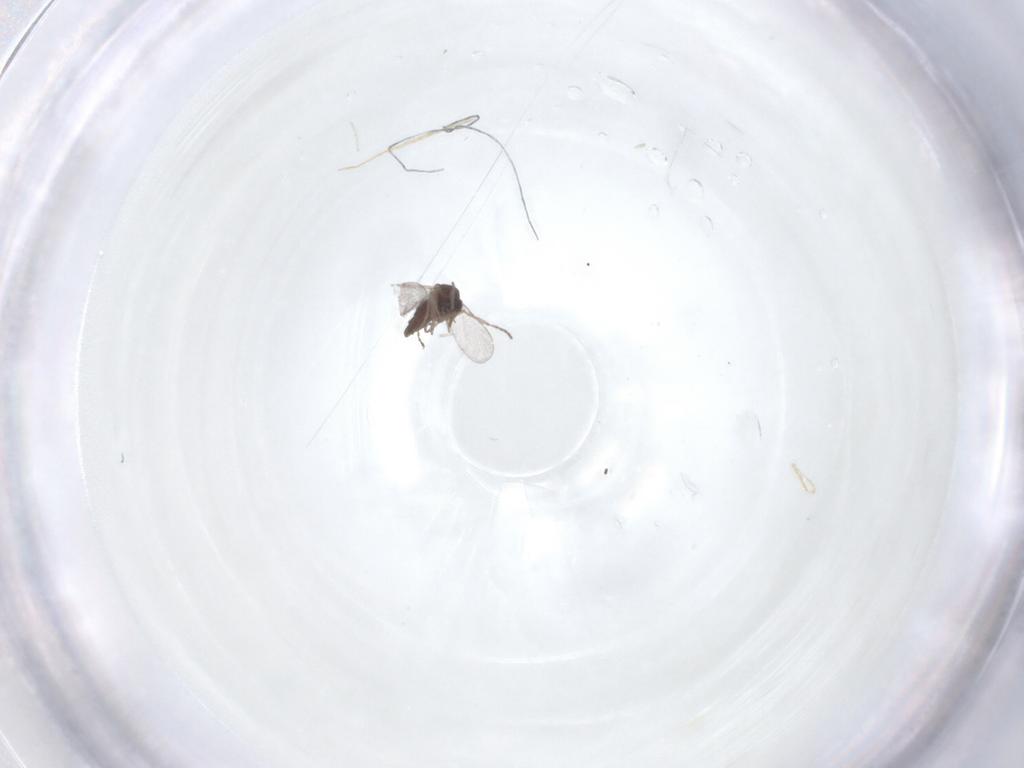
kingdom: Animalia
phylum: Arthropoda
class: Insecta
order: Diptera
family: Ceratopogonidae
